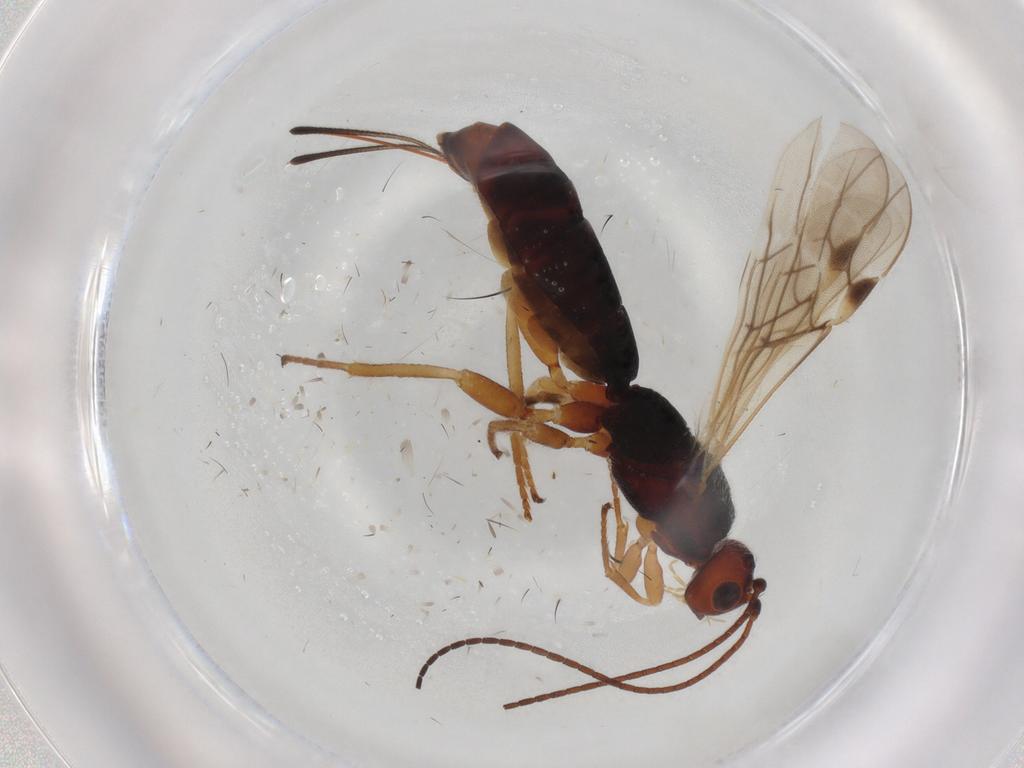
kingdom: Animalia
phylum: Arthropoda
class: Insecta
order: Hymenoptera
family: Braconidae
